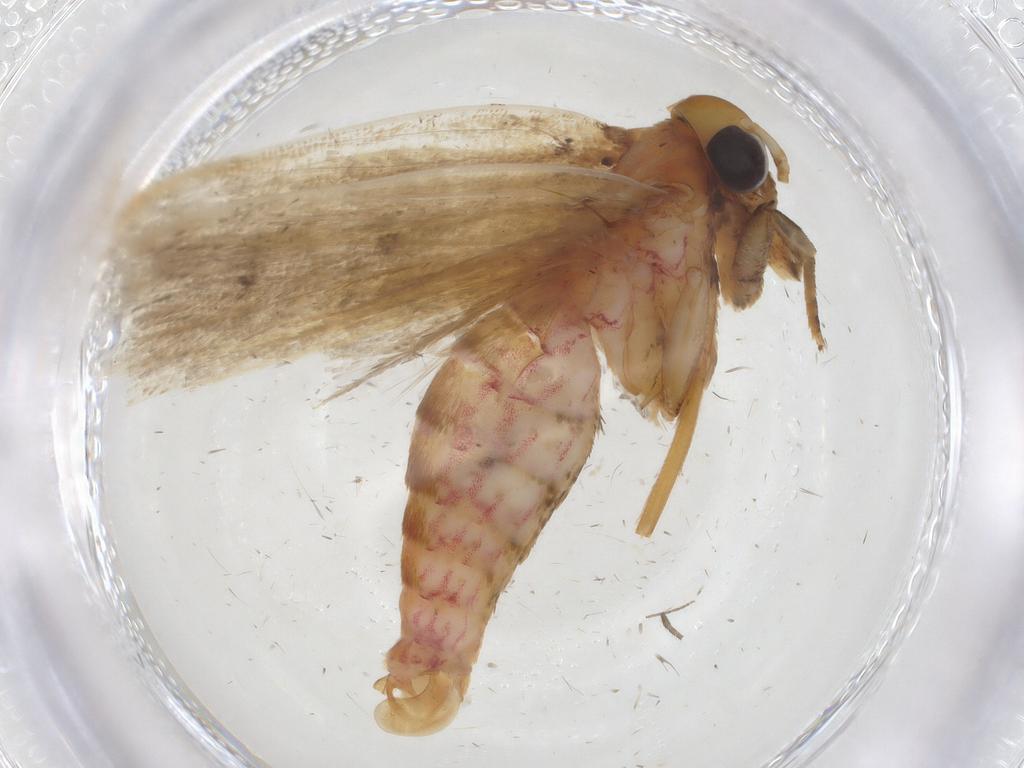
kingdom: Animalia
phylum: Arthropoda
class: Insecta
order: Lepidoptera
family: Oecophoridae
